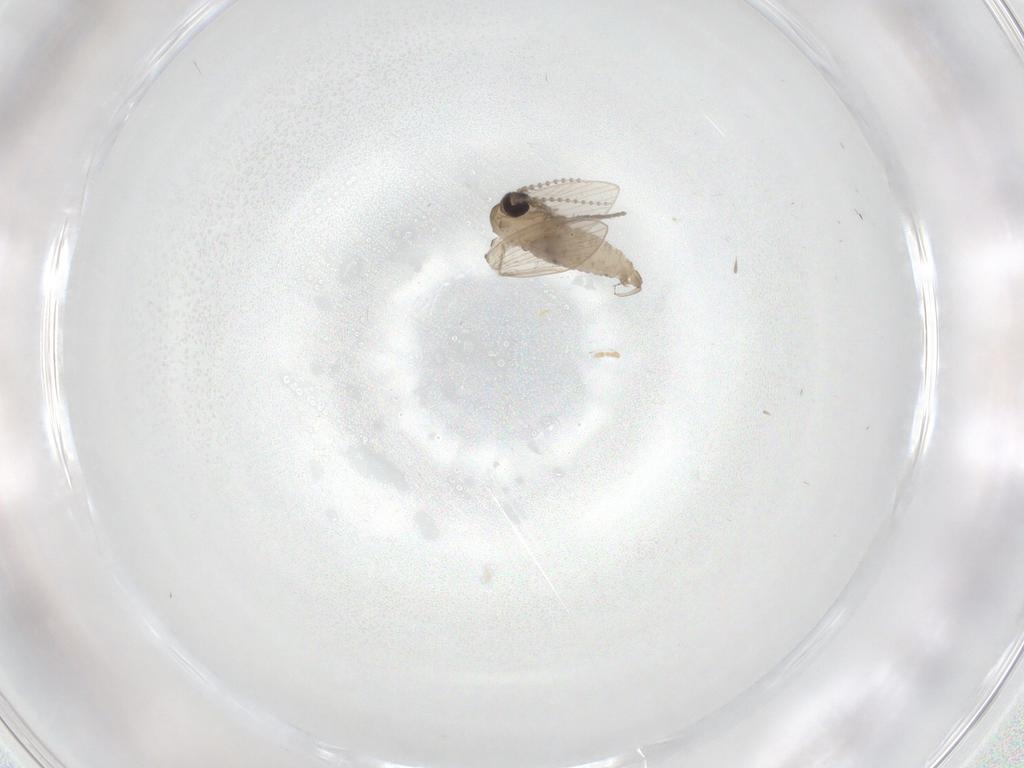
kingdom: Animalia
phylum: Arthropoda
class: Insecta
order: Diptera
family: Psychodidae
